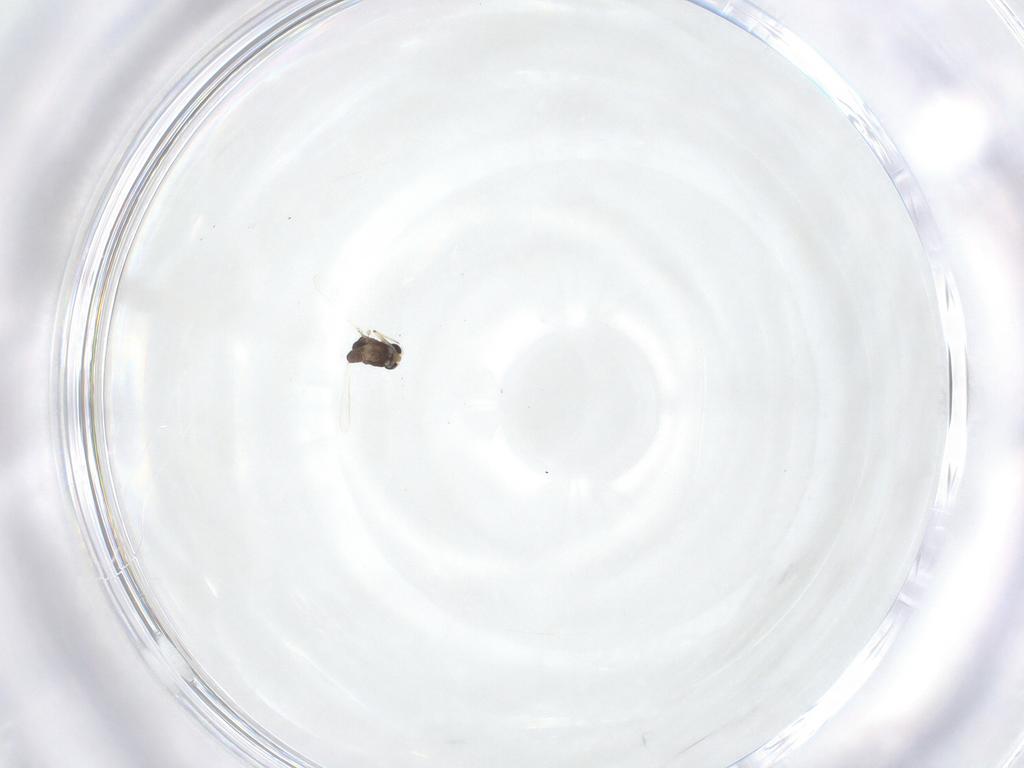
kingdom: Animalia
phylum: Arthropoda
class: Insecta
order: Diptera
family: Chironomidae
